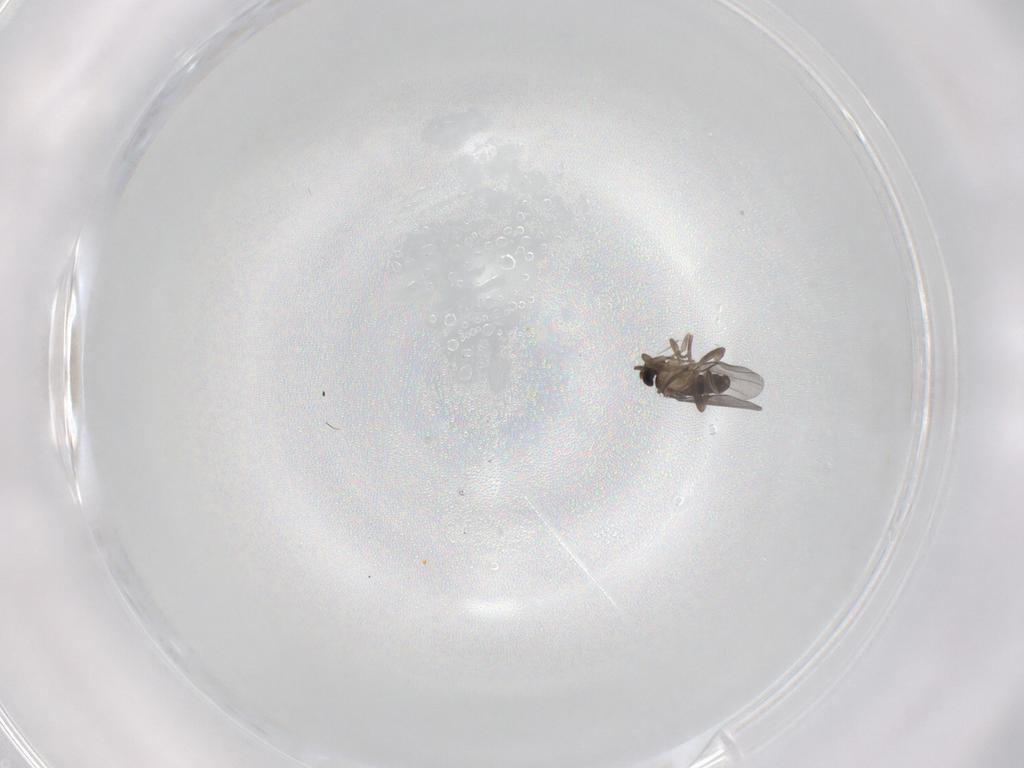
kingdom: Animalia
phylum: Arthropoda
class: Insecta
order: Diptera
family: Sciaridae
